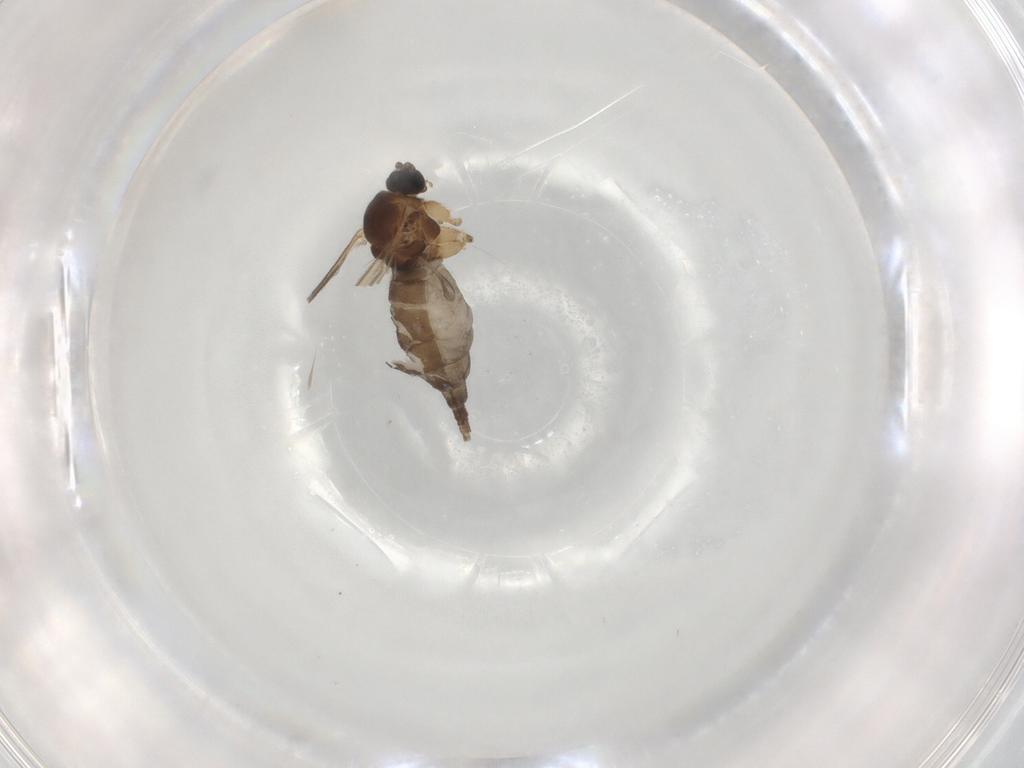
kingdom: Animalia
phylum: Arthropoda
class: Insecta
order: Diptera
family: Sciaridae
